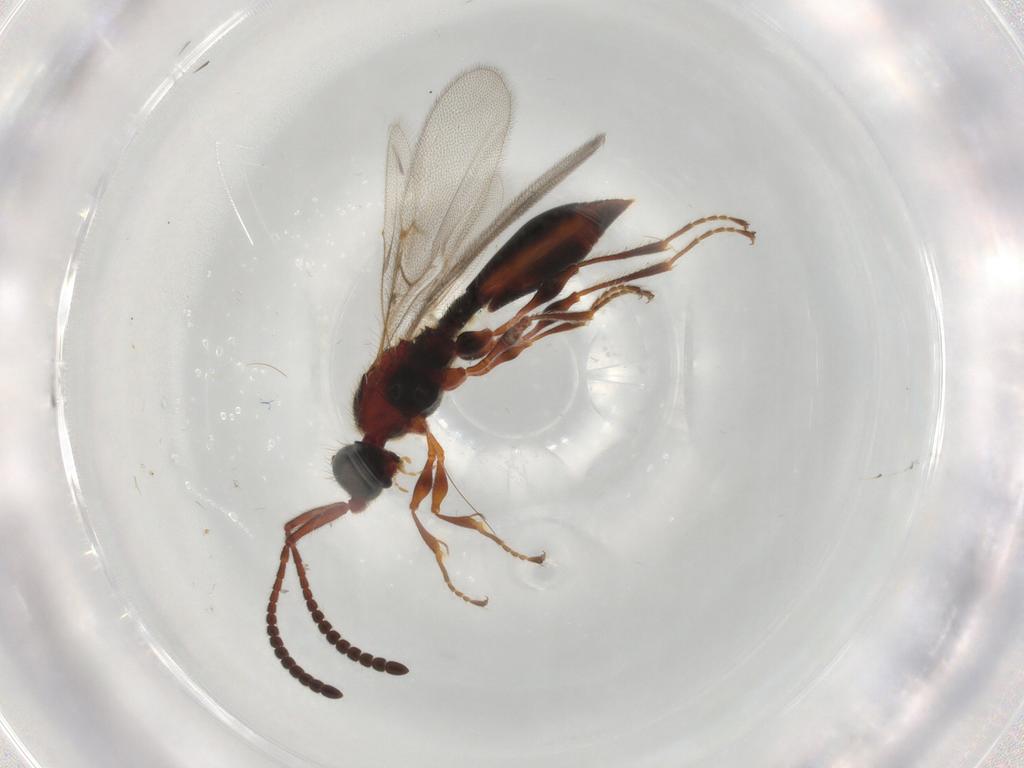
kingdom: Animalia
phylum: Arthropoda
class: Insecta
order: Hymenoptera
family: Diapriidae
